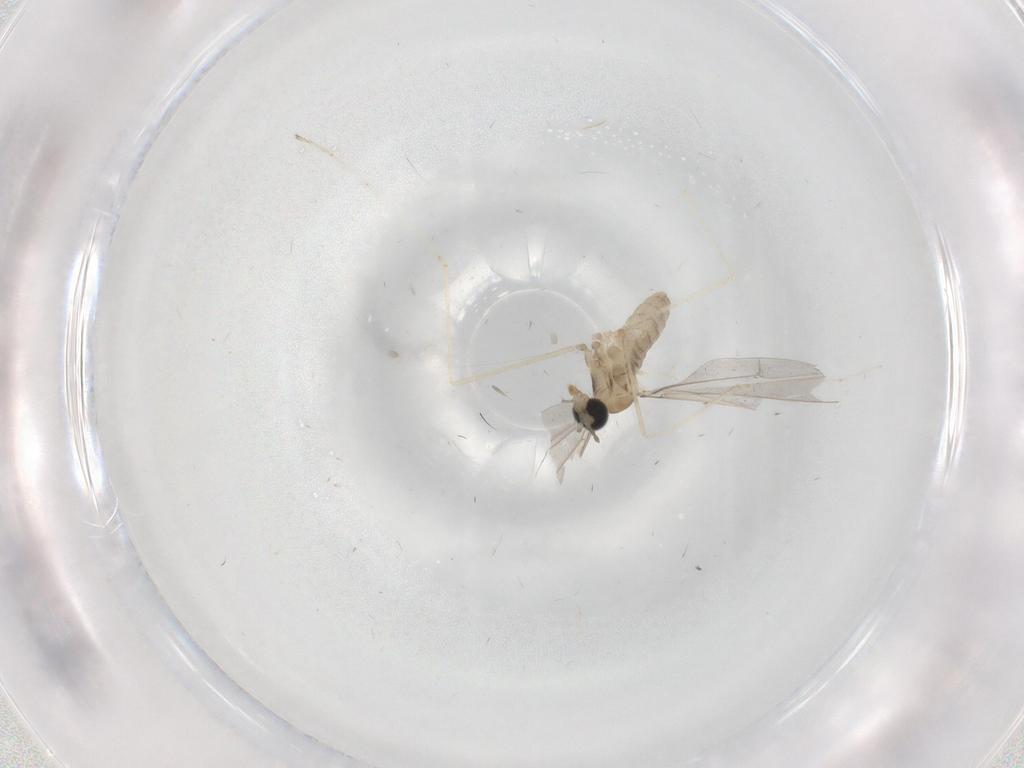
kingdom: Animalia
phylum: Arthropoda
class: Insecta
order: Diptera
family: Cecidomyiidae
